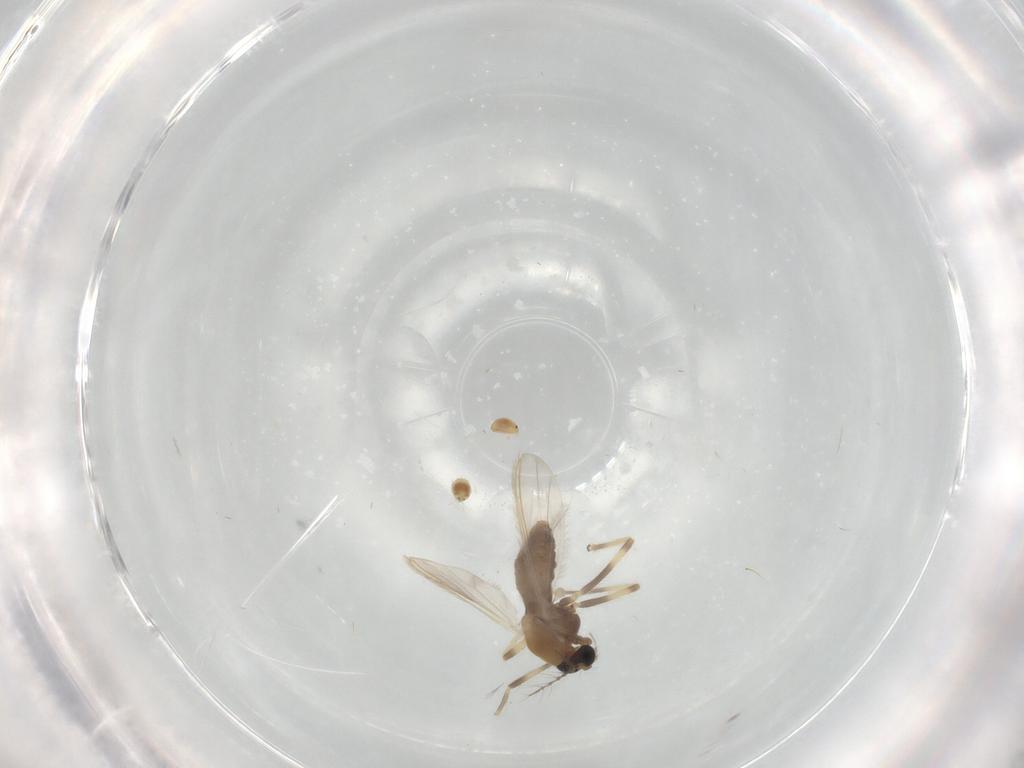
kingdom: Animalia
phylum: Arthropoda
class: Insecta
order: Diptera
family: Chironomidae
